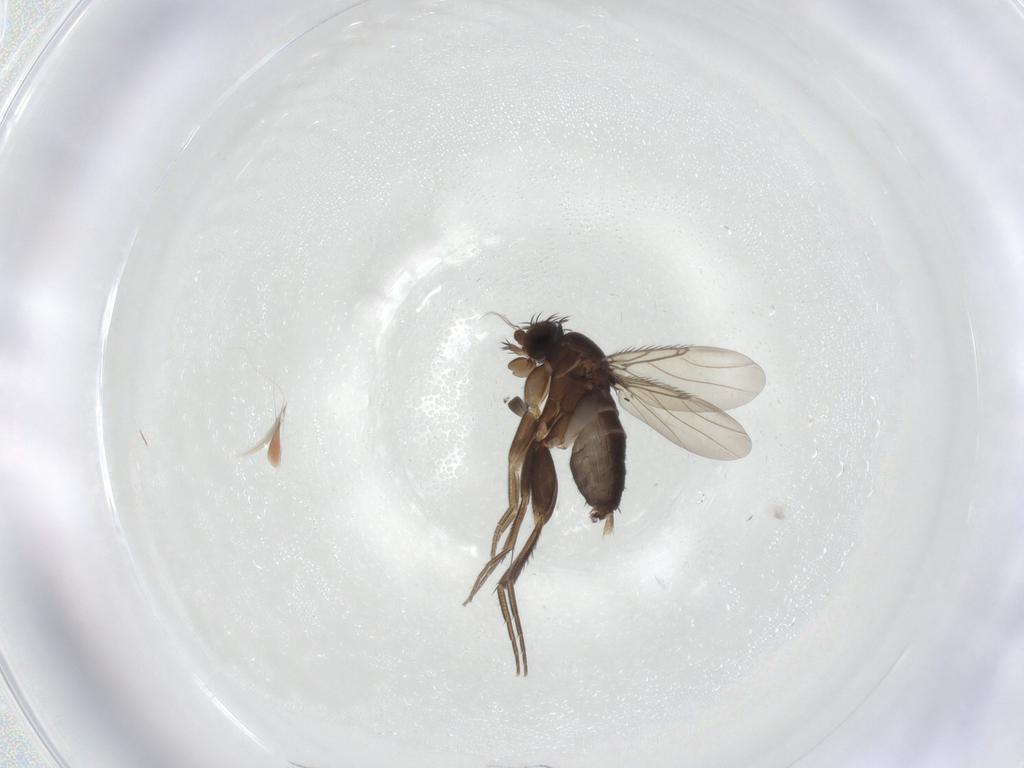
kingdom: Animalia
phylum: Arthropoda
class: Insecta
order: Diptera
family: Phoridae
